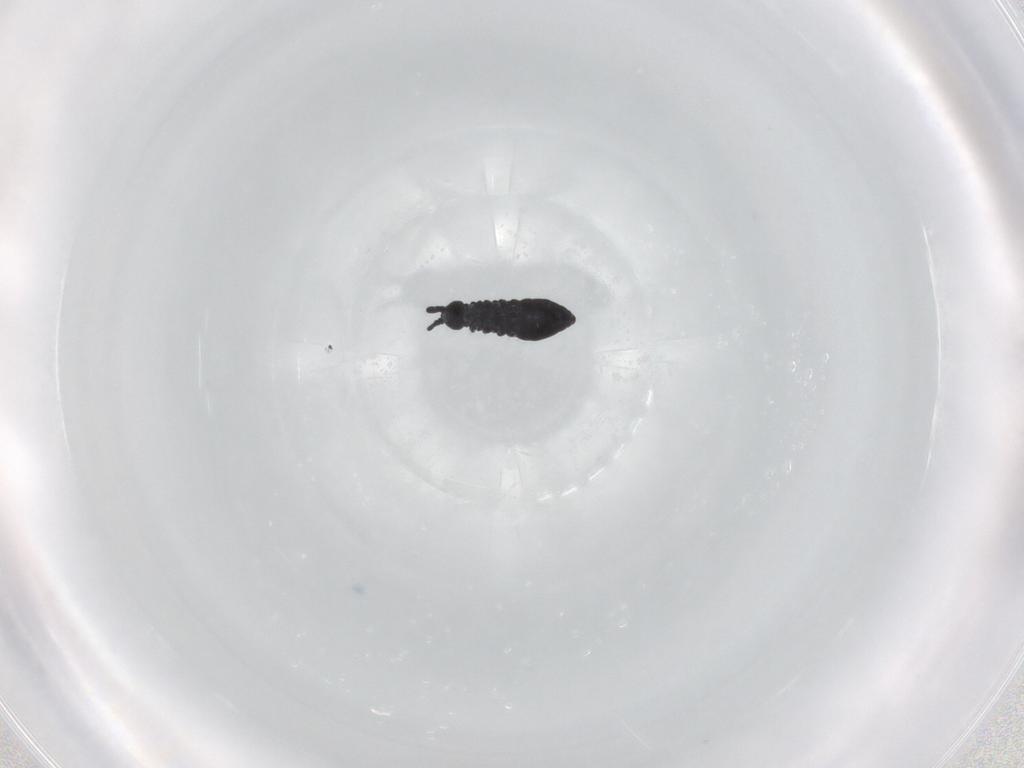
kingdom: Animalia
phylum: Arthropoda
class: Collembola
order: Poduromorpha
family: Hypogastruridae
